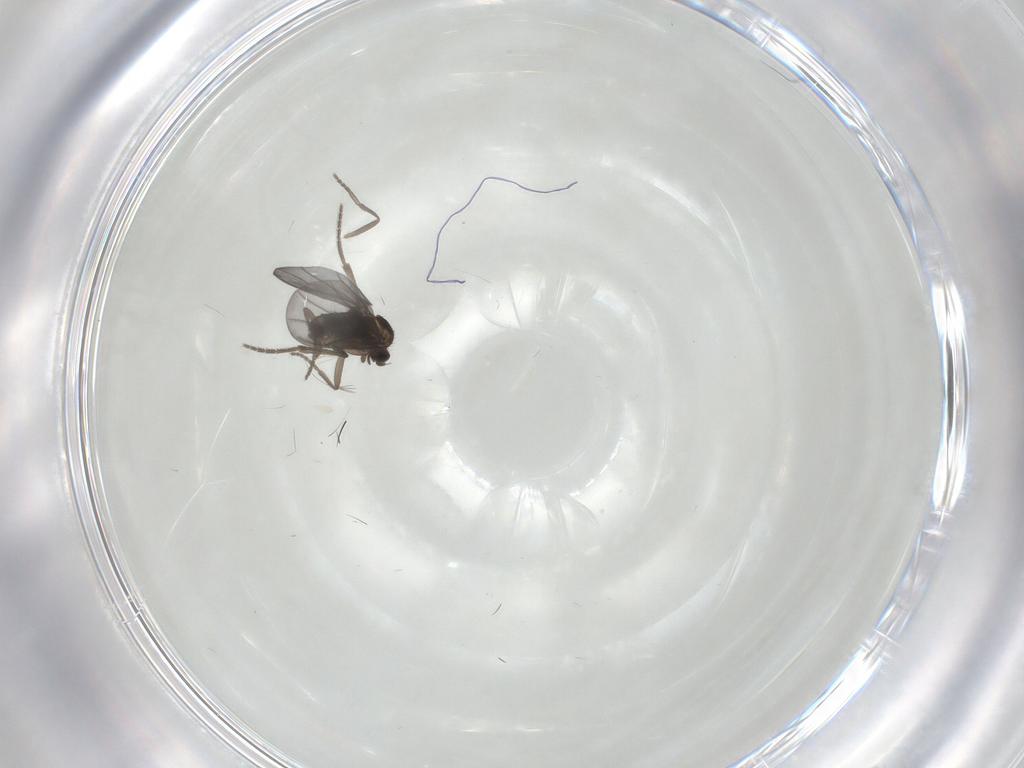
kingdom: Animalia
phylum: Arthropoda
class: Insecta
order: Diptera
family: Phoridae
